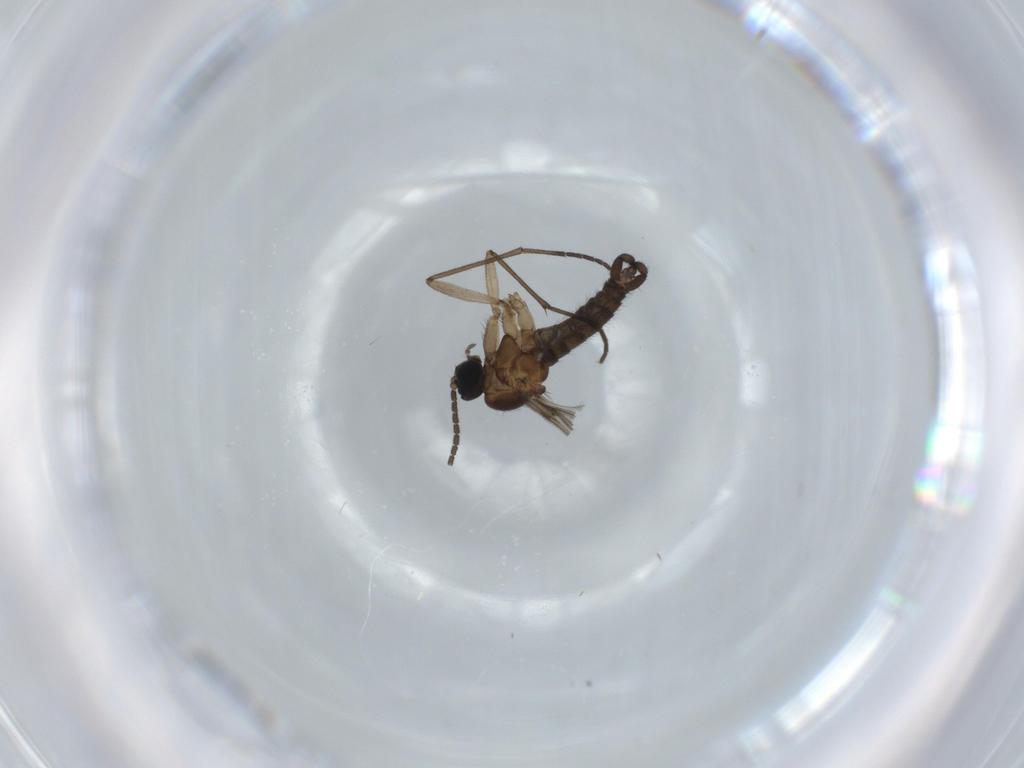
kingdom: Animalia
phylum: Arthropoda
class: Insecta
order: Diptera
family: Sciaridae
